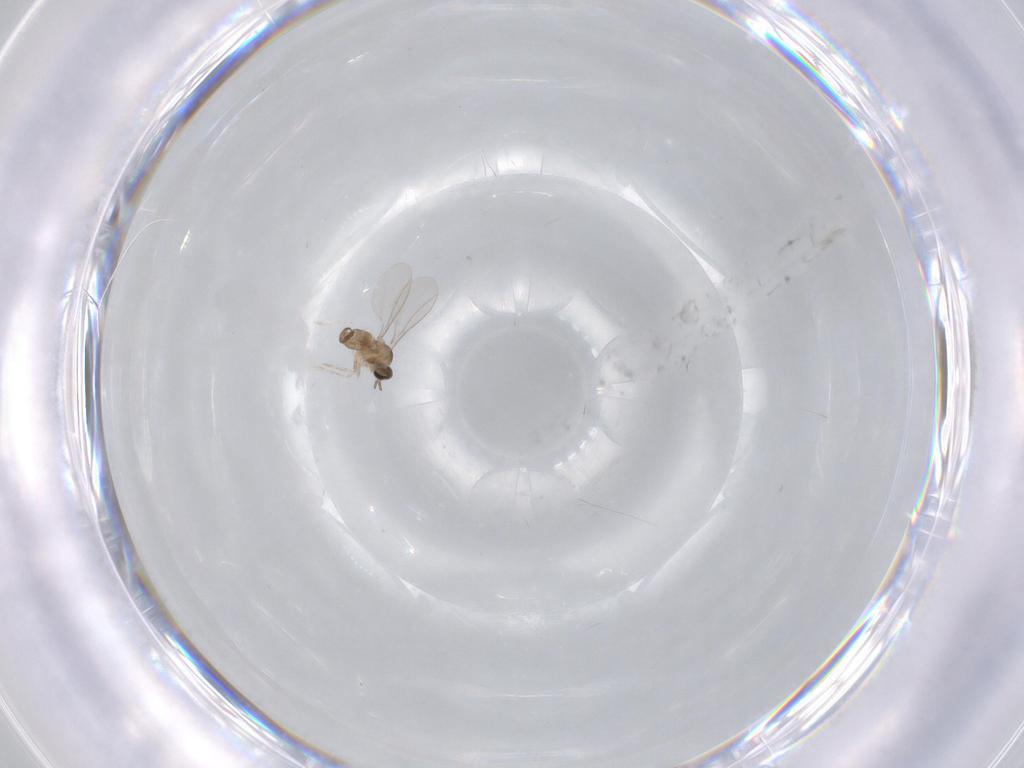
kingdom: Animalia
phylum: Arthropoda
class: Insecta
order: Diptera
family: Cecidomyiidae
